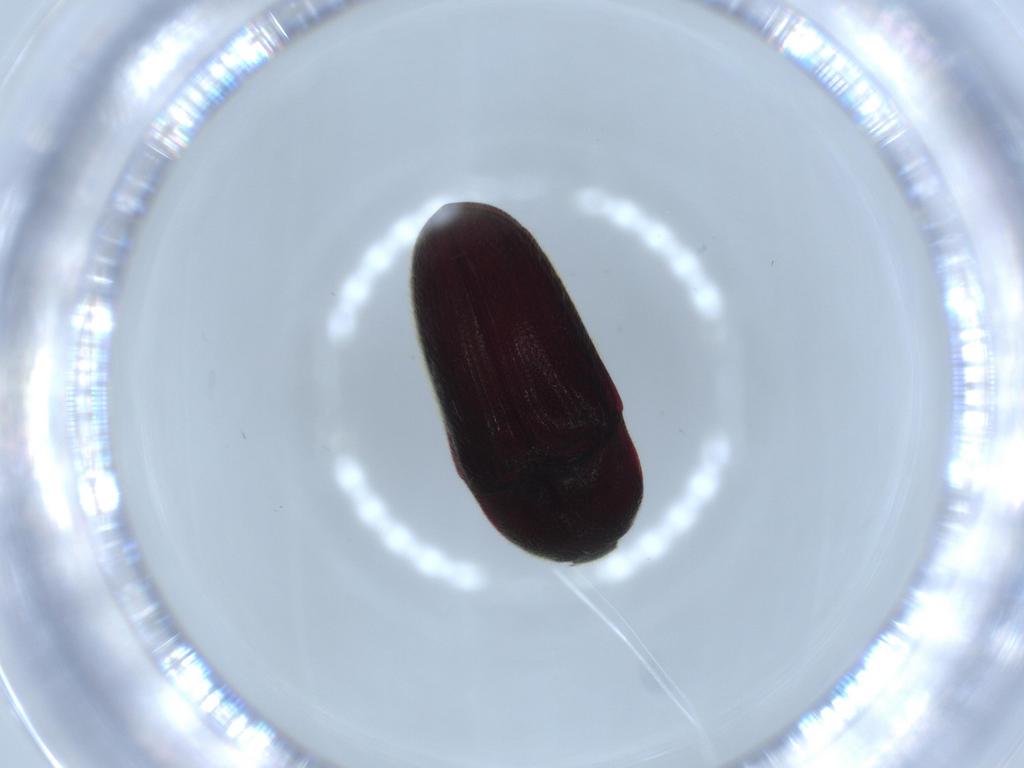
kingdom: Animalia
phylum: Arthropoda
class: Insecta
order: Coleoptera
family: Throscidae
